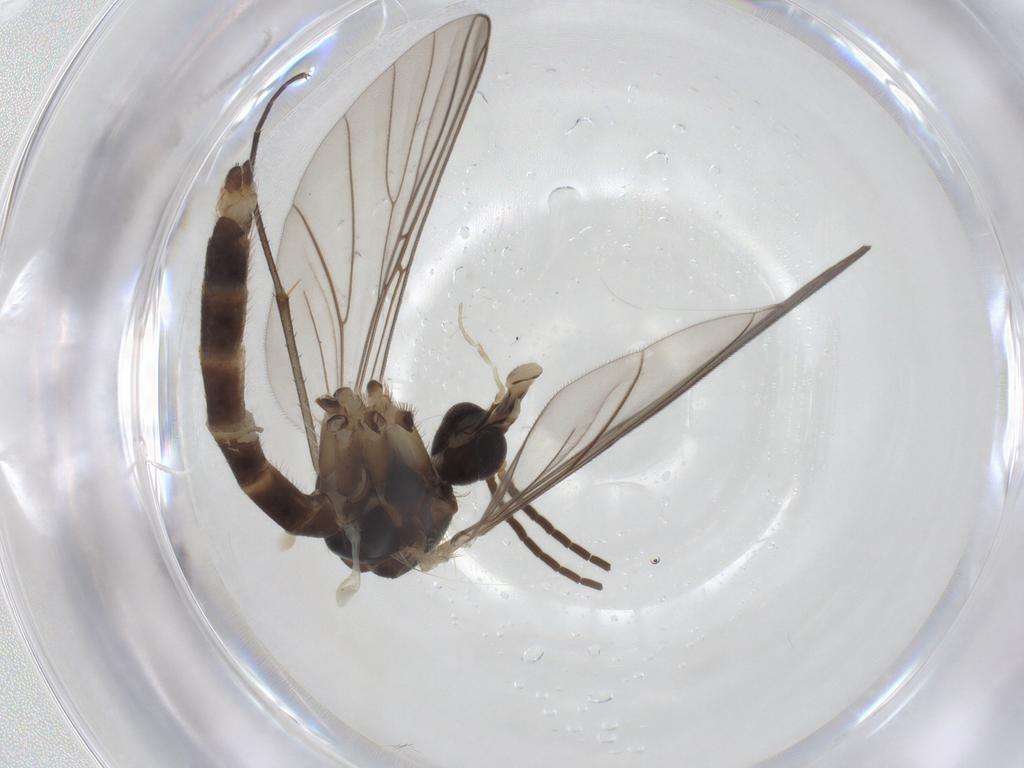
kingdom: Animalia
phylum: Arthropoda
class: Insecta
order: Diptera
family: Mycetophilidae
